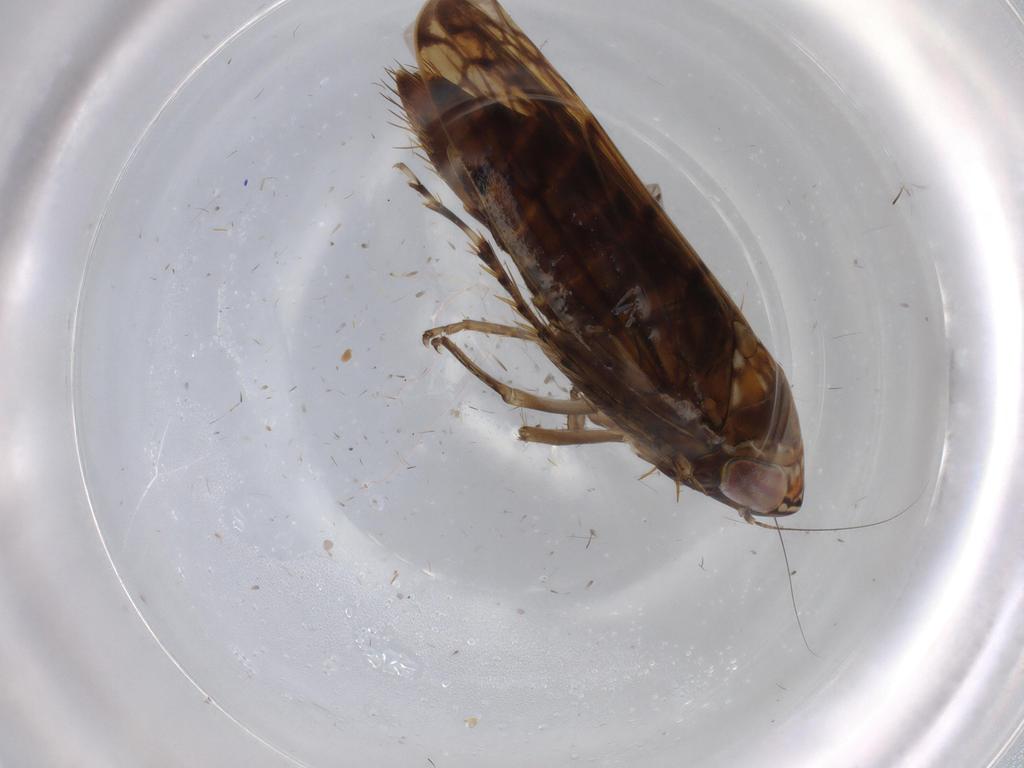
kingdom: Animalia
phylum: Arthropoda
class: Insecta
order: Hemiptera
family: Cicadellidae
